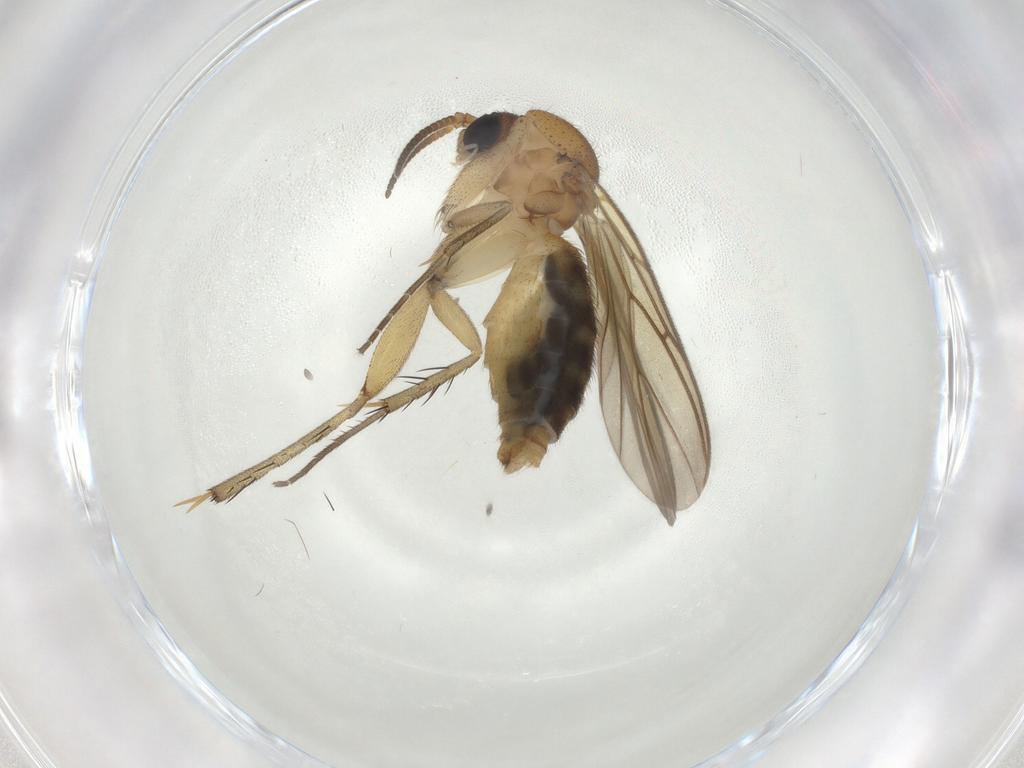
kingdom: Animalia
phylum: Arthropoda
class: Insecta
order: Diptera
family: Mycetophilidae
